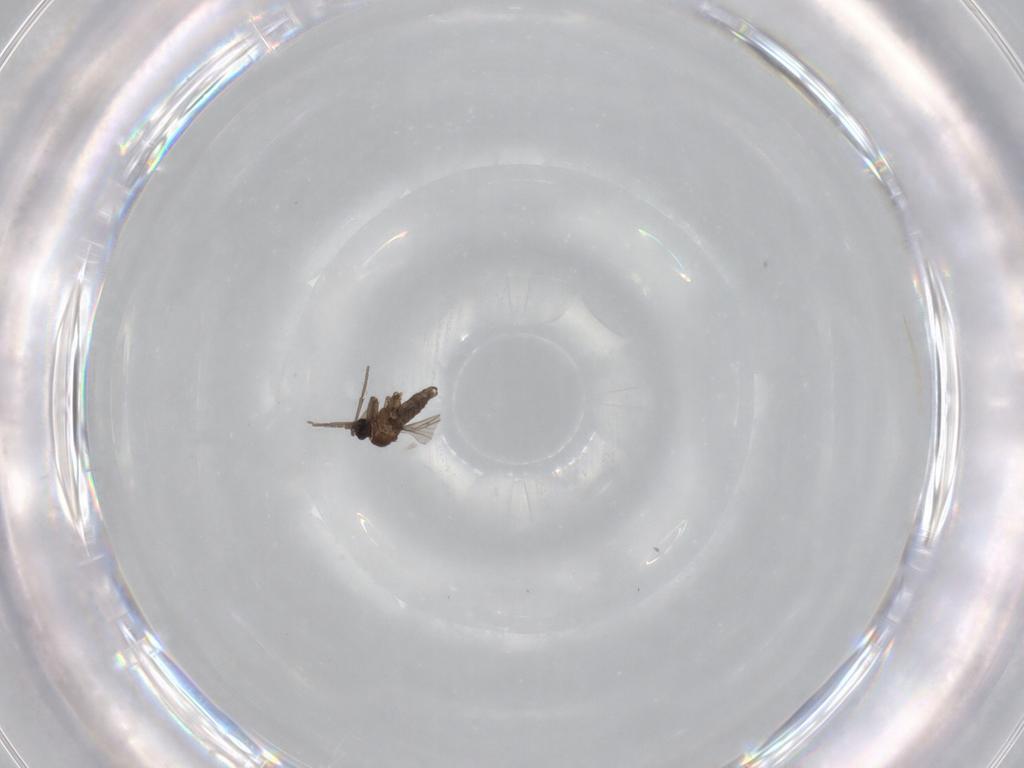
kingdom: Animalia
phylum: Arthropoda
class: Insecta
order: Diptera
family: Sciaridae
